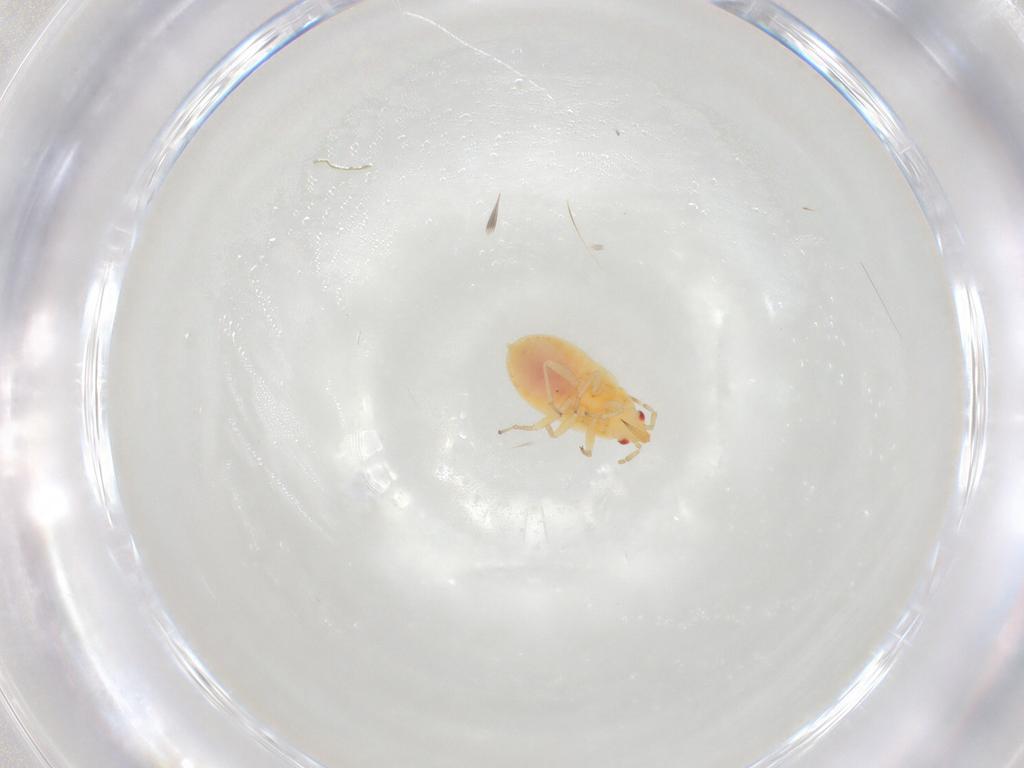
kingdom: Animalia
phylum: Arthropoda
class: Insecta
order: Hemiptera
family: Anthocoridae
